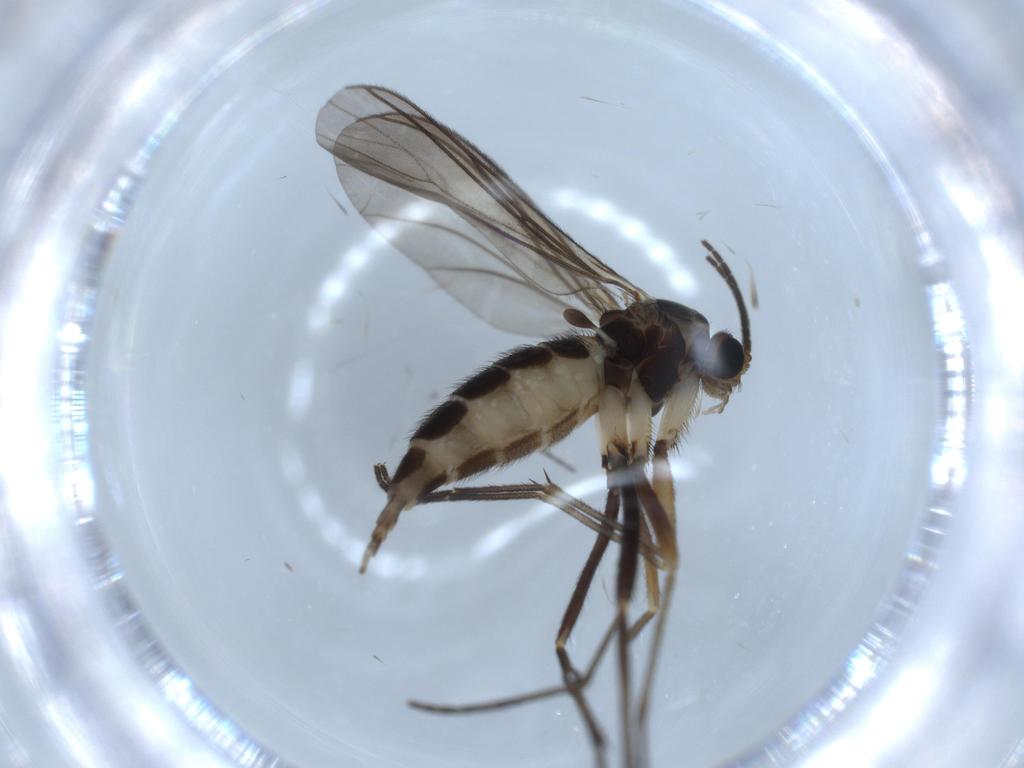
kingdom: Animalia
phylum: Arthropoda
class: Insecta
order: Diptera
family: Sciaridae
